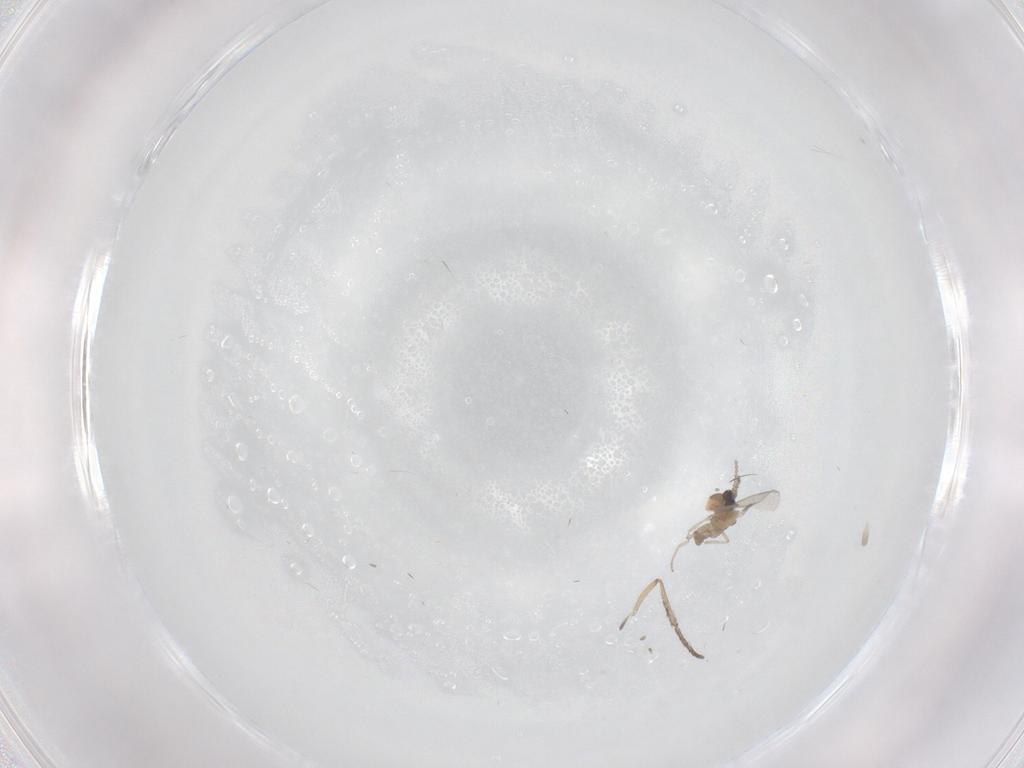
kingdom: Animalia
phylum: Arthropoda
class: Insecta
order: Diptera
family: Cecidomyiidae
